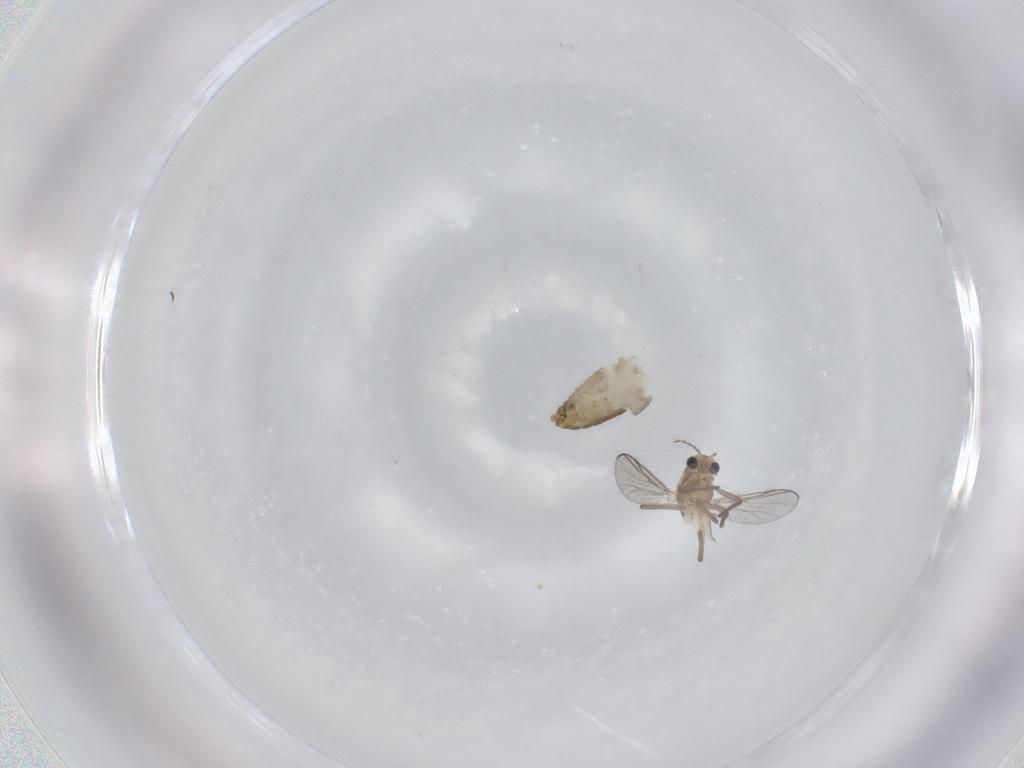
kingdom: Animalia
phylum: Arthropoda
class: Insecta
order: Diptera
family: Chironomidae
